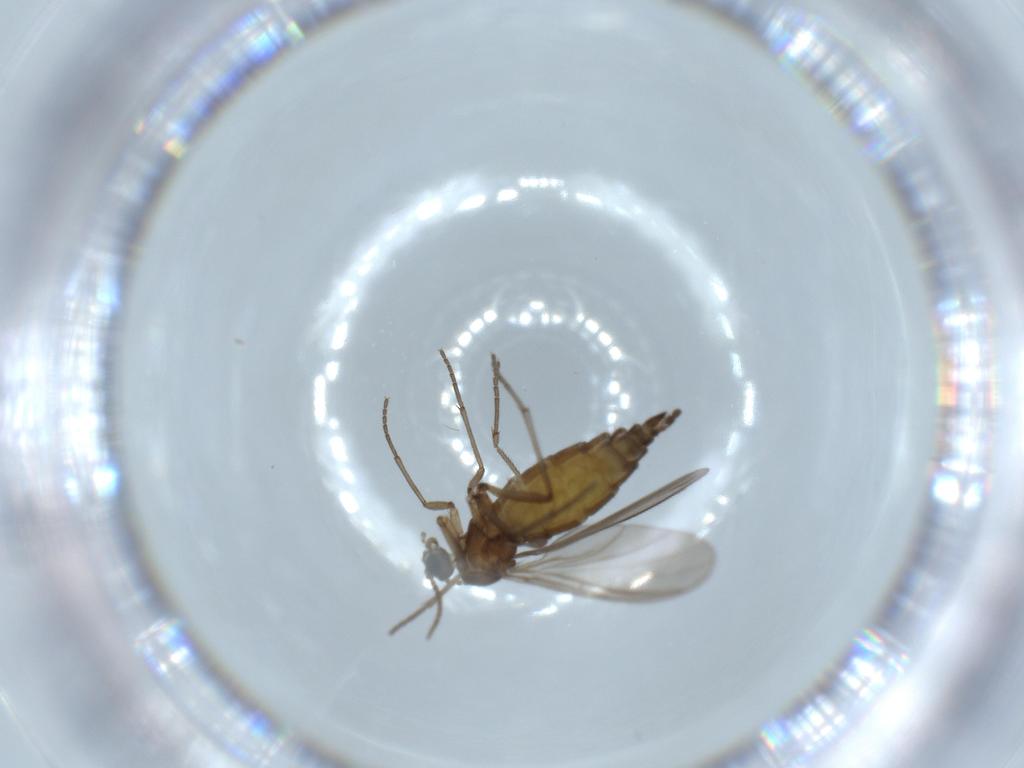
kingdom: Animalia
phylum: Arthropoda
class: Insecta
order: Diptera
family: Sciaridae
